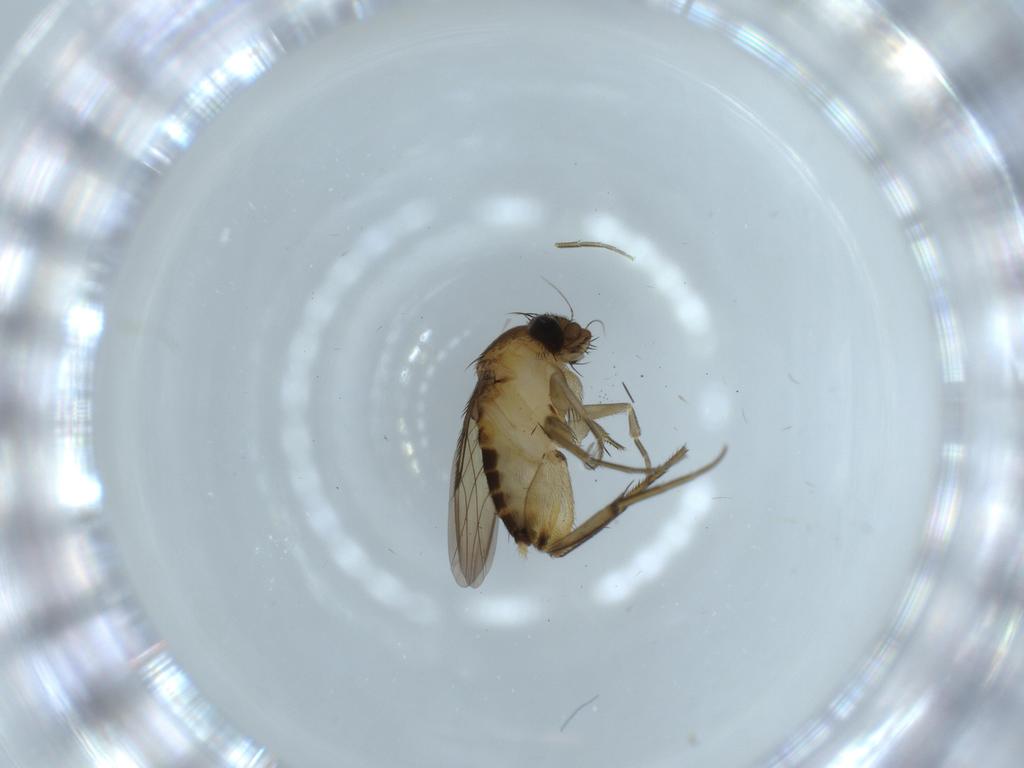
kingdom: Animalia
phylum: Arthropoda
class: Insecta
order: Diptera
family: Phoridae
